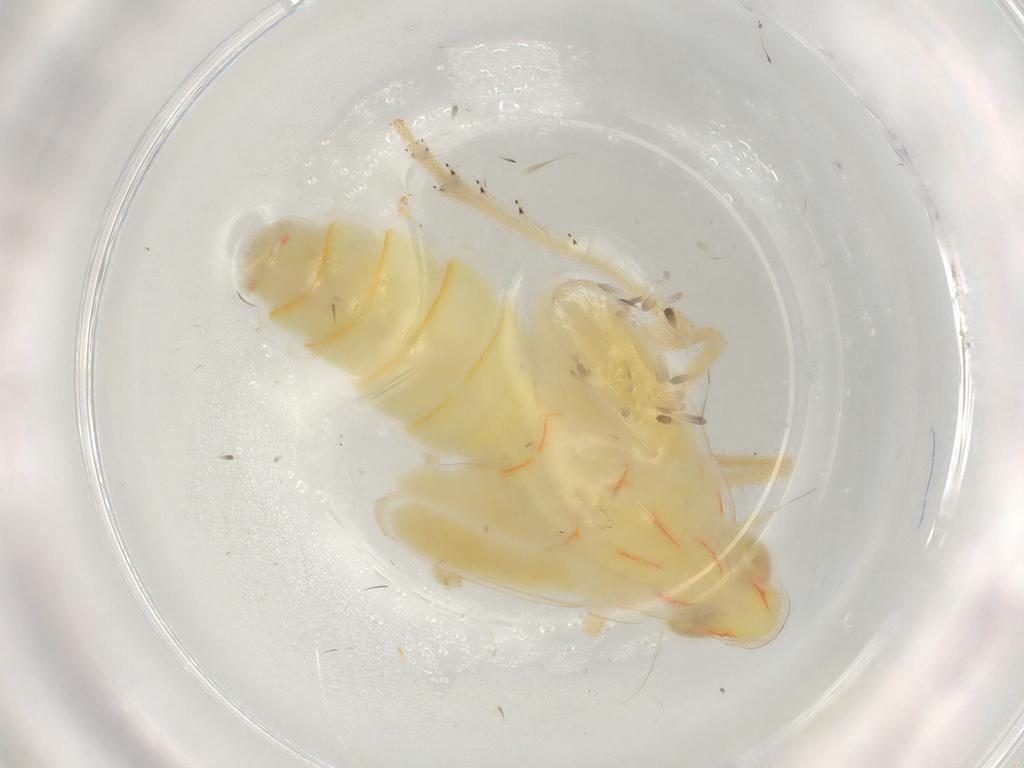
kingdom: Animalia
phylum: Arthropoda
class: Insecta
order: Hemiptera
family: Tropiduchidae
